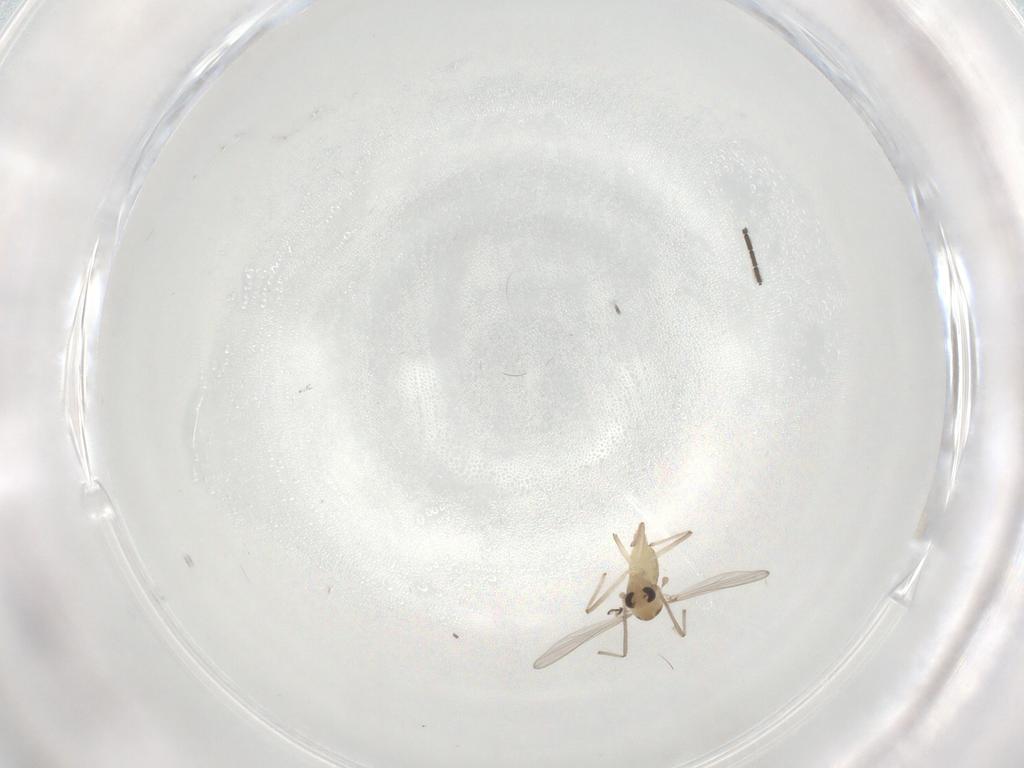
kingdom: Animalia
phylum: Arthropoda
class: Insecta
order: Diptera
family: Chironomidae
